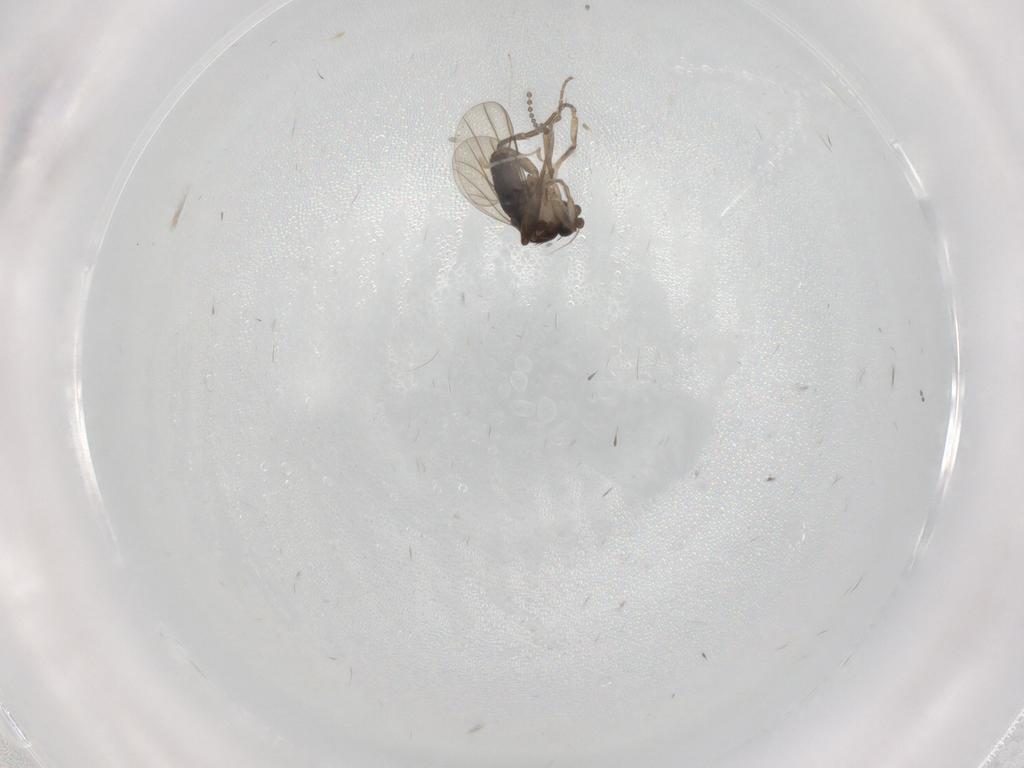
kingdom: Animalia
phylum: Arthropoda
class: Insecta
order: Diptera
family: Phoridae
